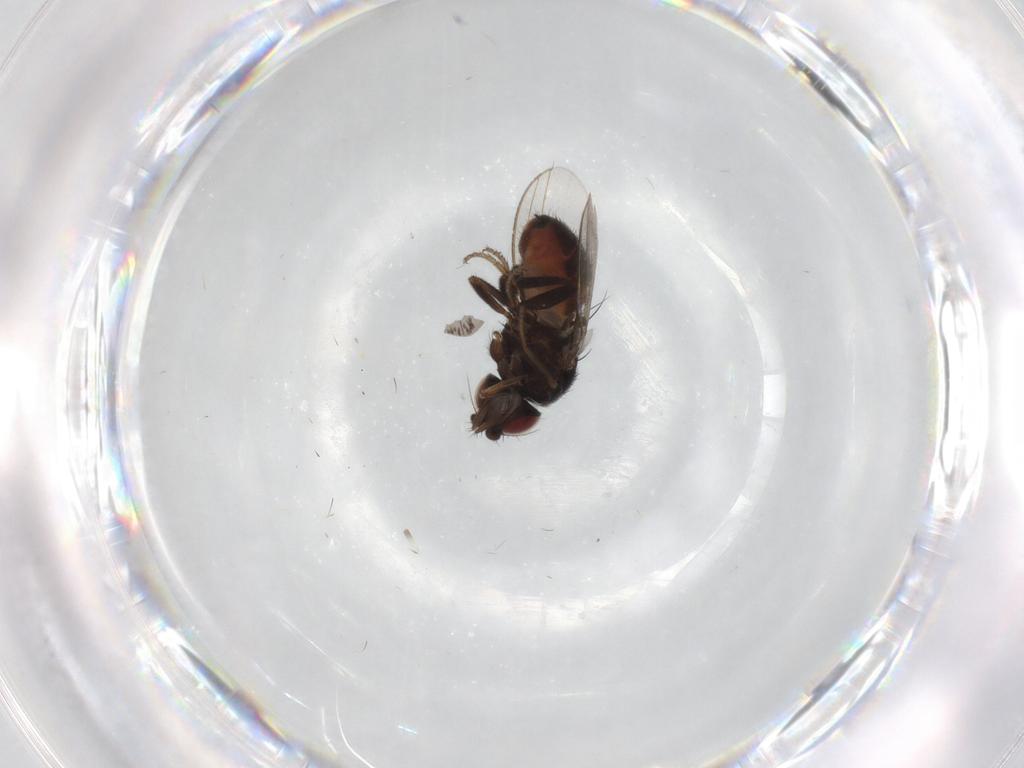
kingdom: Animalia
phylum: Arthropoda
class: Insecta
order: Diptera
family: Milichiidae
